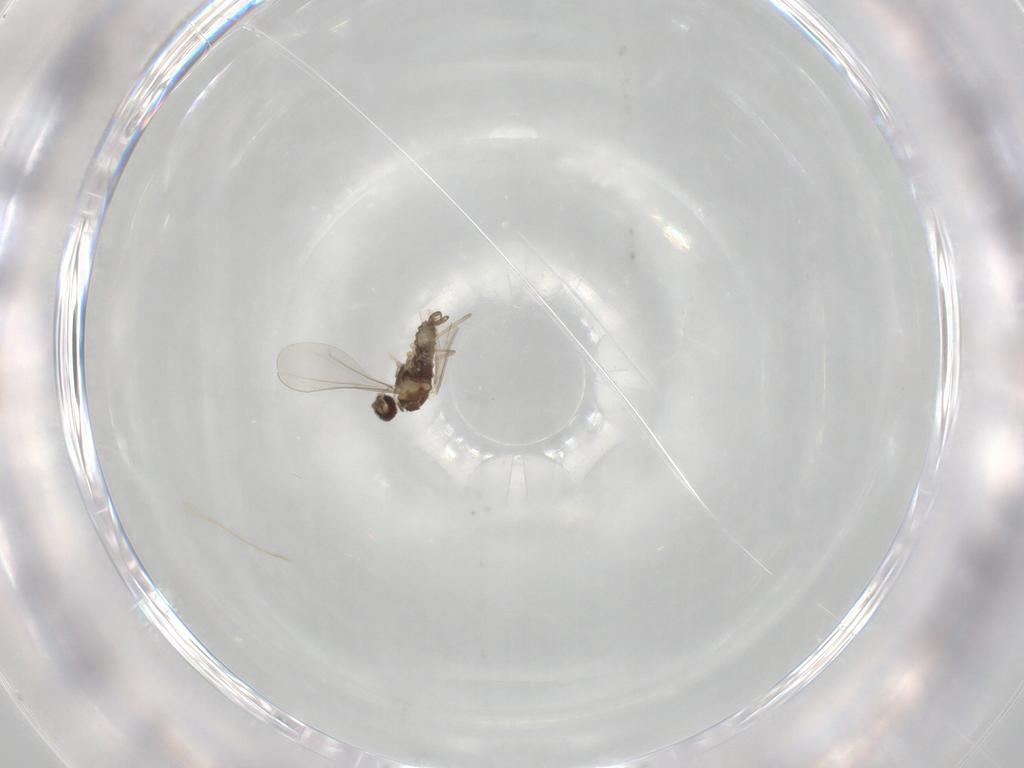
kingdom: Animalia
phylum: Arthropoda
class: Insecta
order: Diptera
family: Cecidomyiidae
